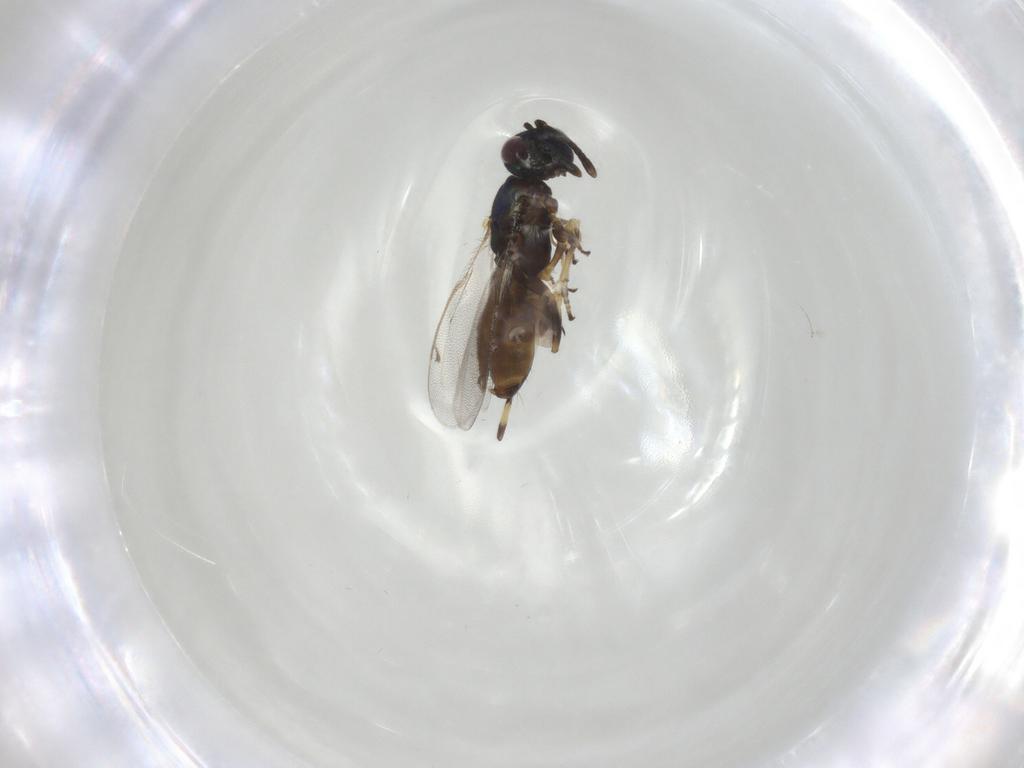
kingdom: Animalia
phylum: Arthropoda
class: Insecta
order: Hymenoptera
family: Eupelmidae
